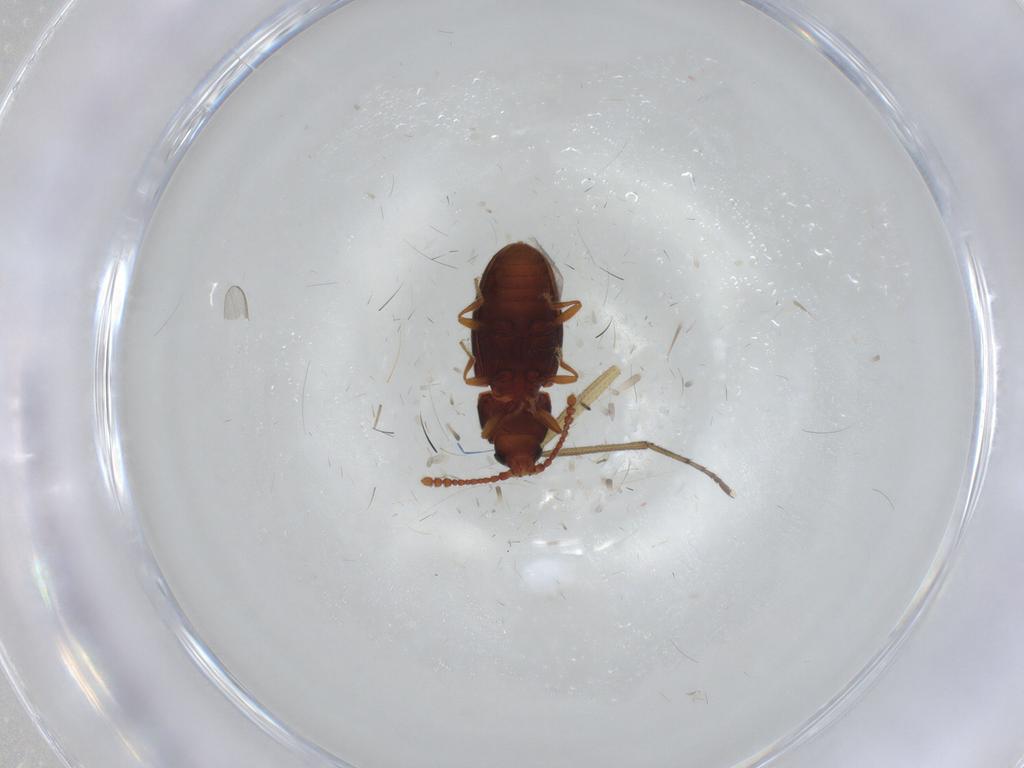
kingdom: Animalia
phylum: Arthropoda
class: Insecta
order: Coleoptera
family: Cryptophagidae
